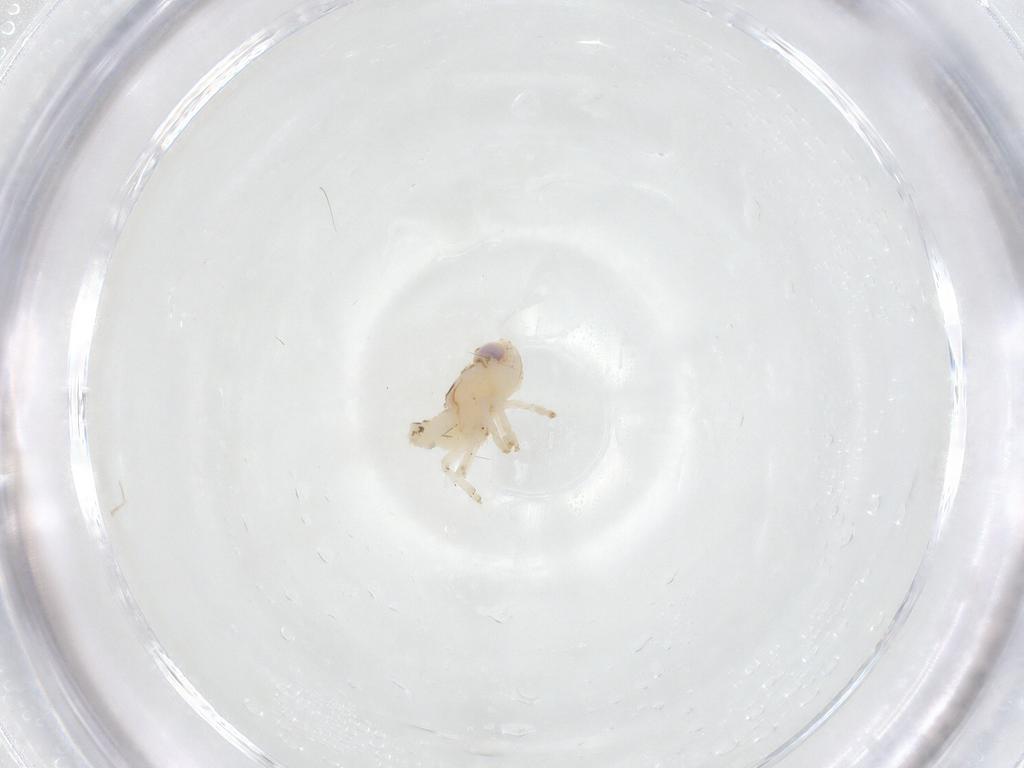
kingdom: Animalia
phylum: Arthropoda
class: Insecta
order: Hemiptera
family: Nogodinidae
